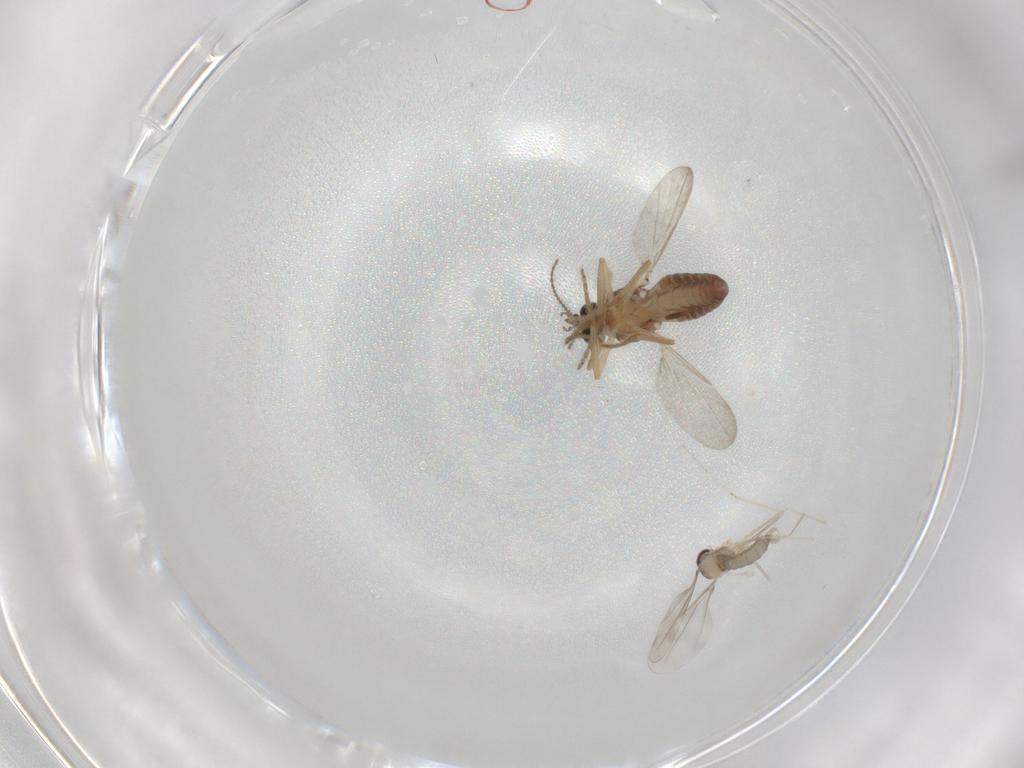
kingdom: Animalia
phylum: Arthropoda
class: Insecta
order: Diptera
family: Ceratopogonidae
